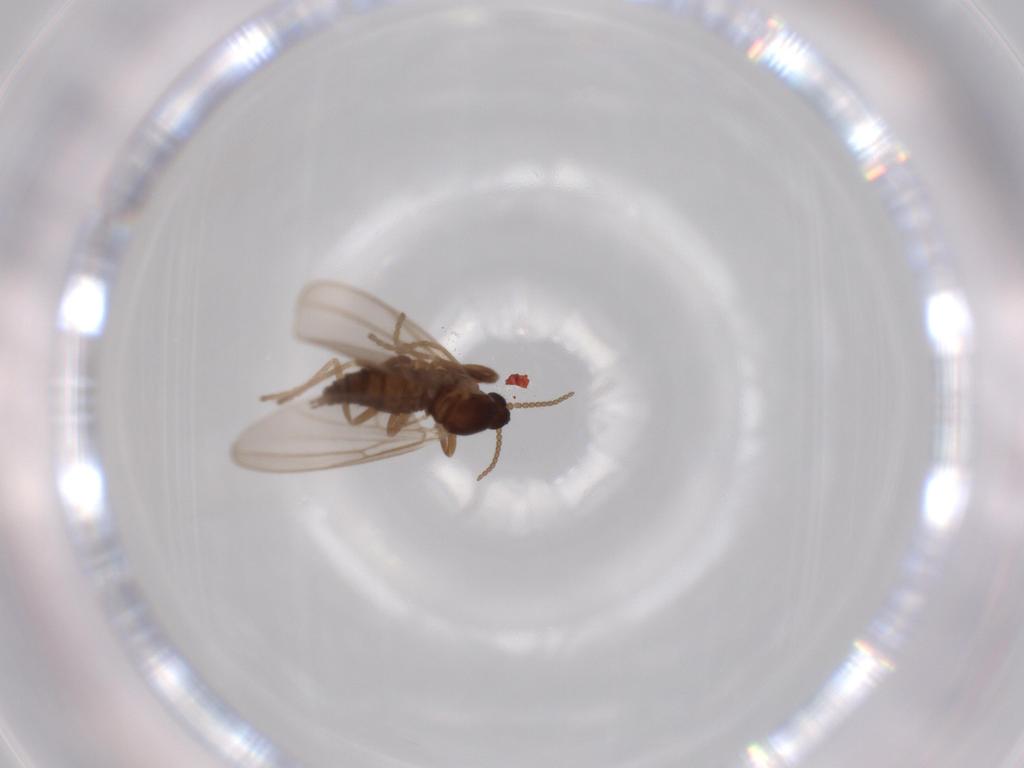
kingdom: Animalia
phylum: Arthropoda
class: Insecta
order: Diptera
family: Cecidomyiidae
